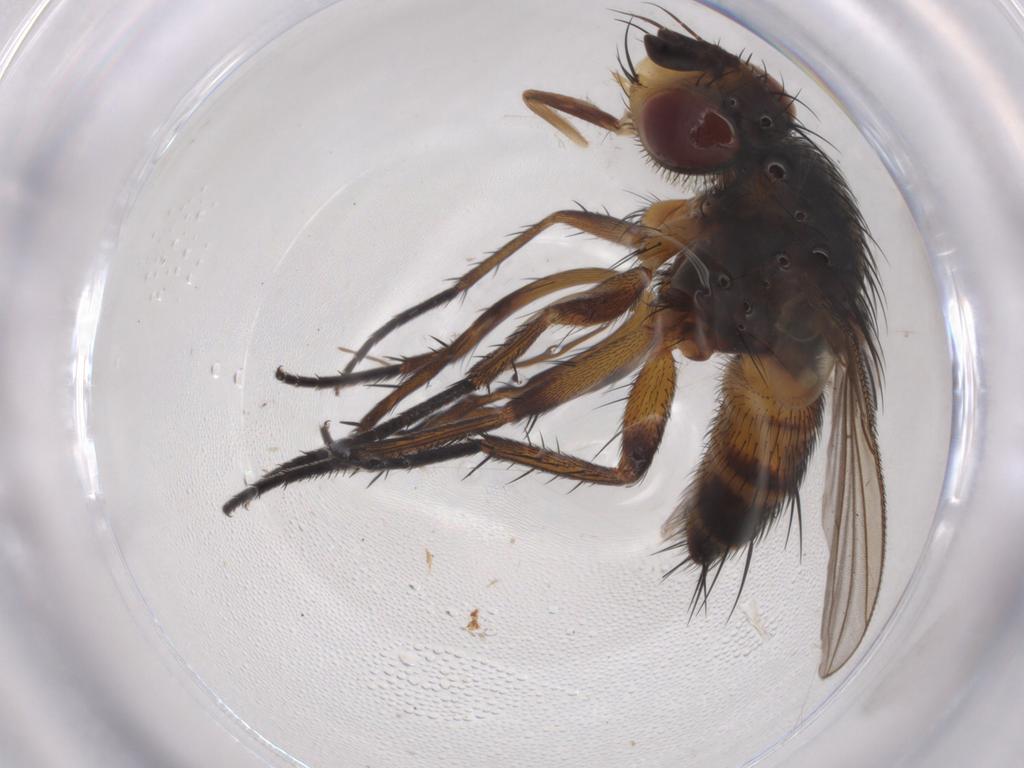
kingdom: Animalia
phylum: Arthropoda
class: Insecta
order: Diptera
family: Tachinidae
